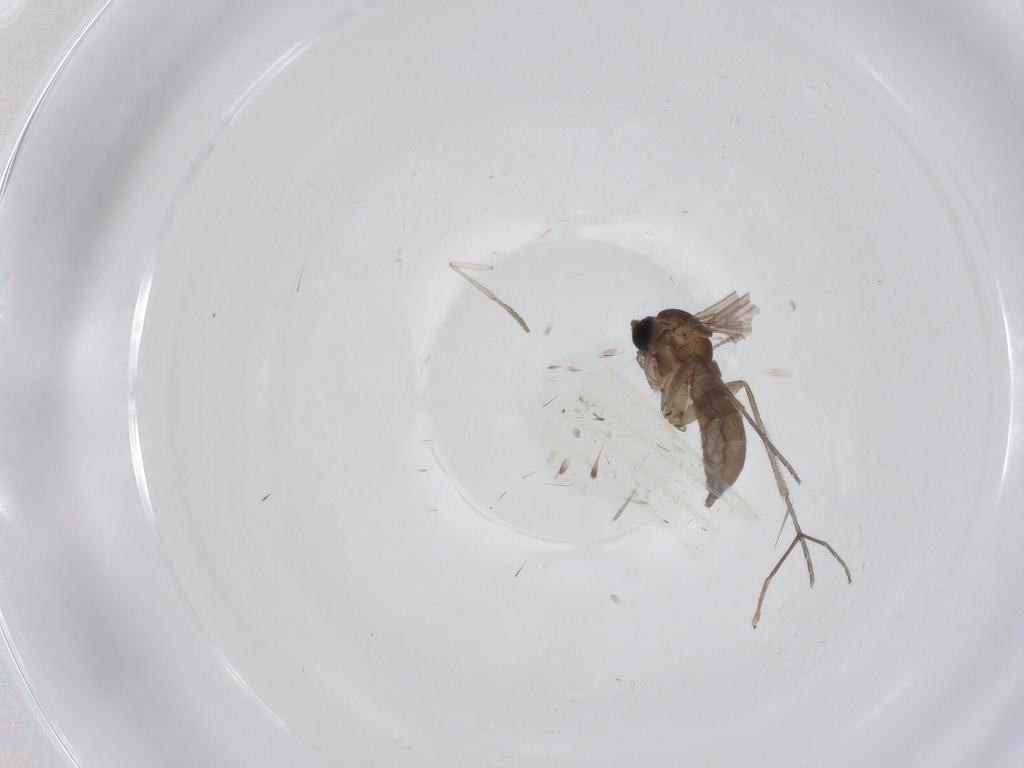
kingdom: Animalia
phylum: Arthropoda
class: Insecta
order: Diptera
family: Sciaridae
